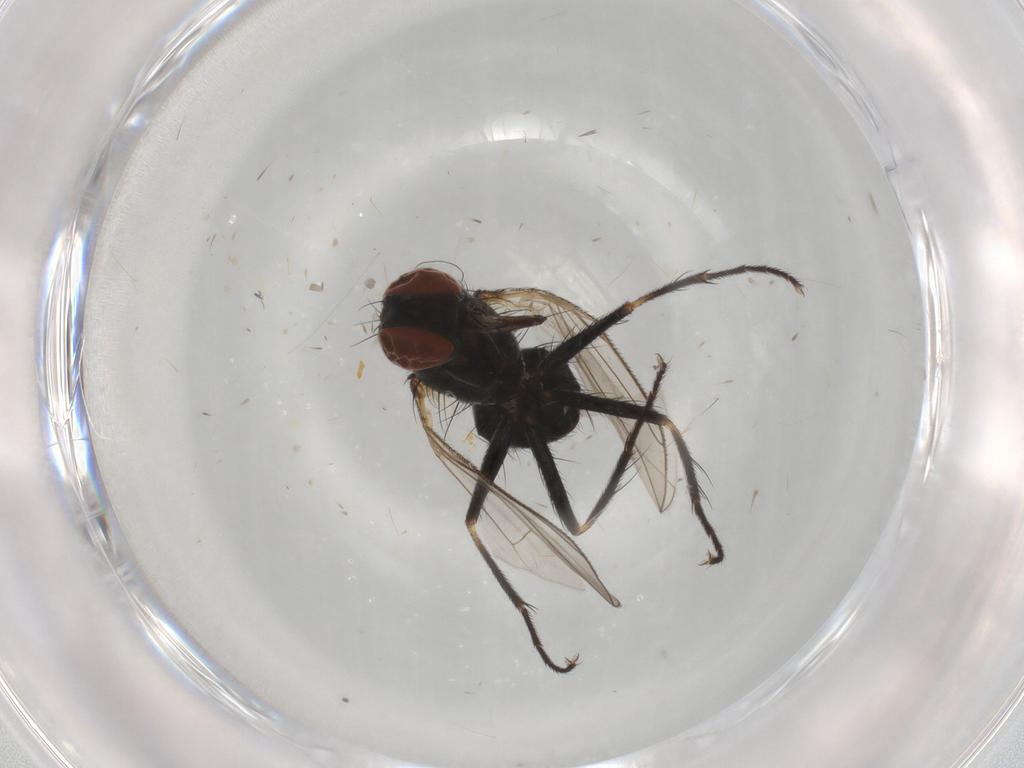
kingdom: Animalia
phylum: Arthropoda
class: Insecta
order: Diptera
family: Muscidae
